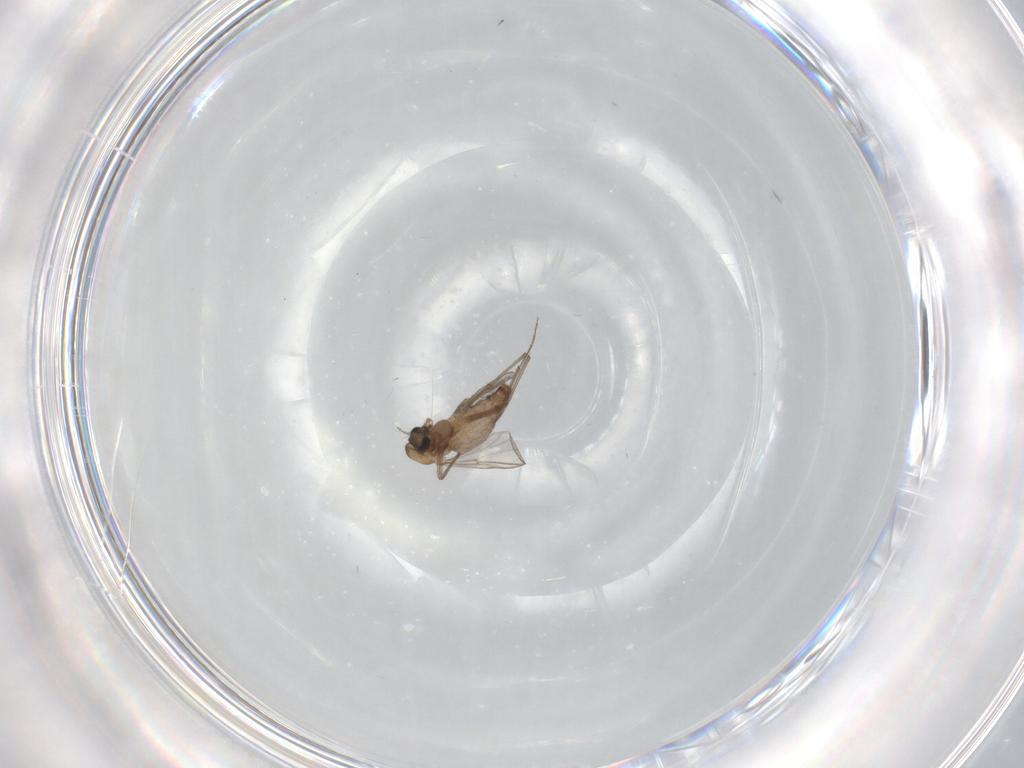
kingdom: Animalia
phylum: Arthropoda
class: Insecta
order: Diptera
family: Chironomidae
